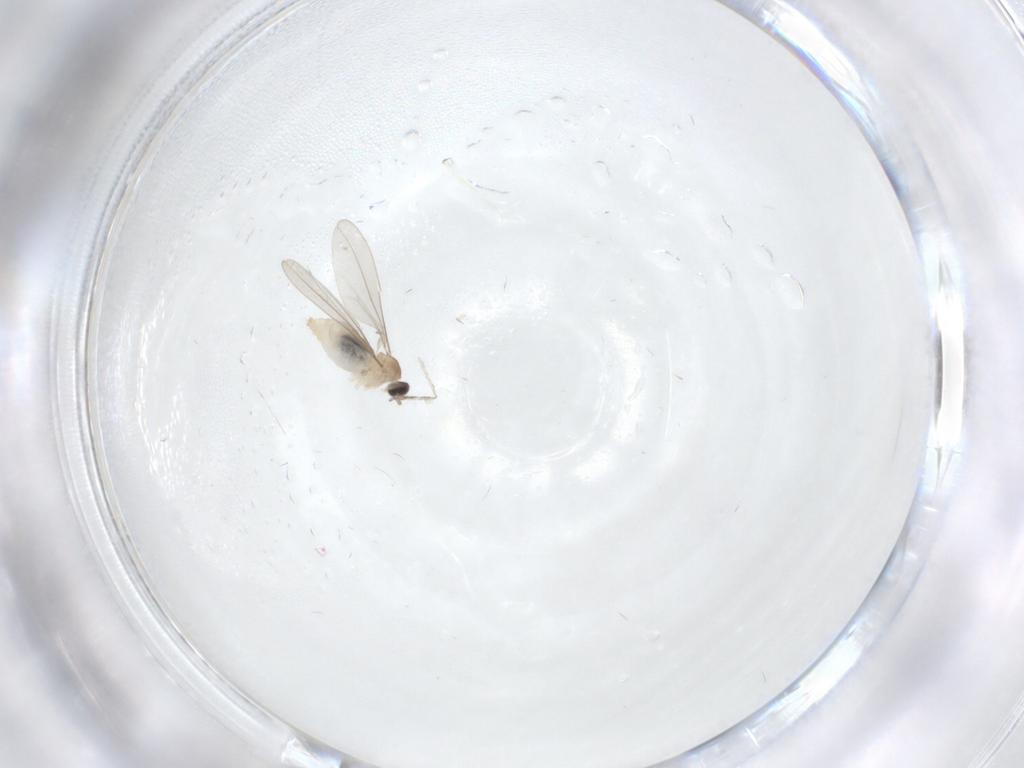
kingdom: Animalia
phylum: Arthropoda
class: Insecta
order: Diptera
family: Cecidomyiidae
